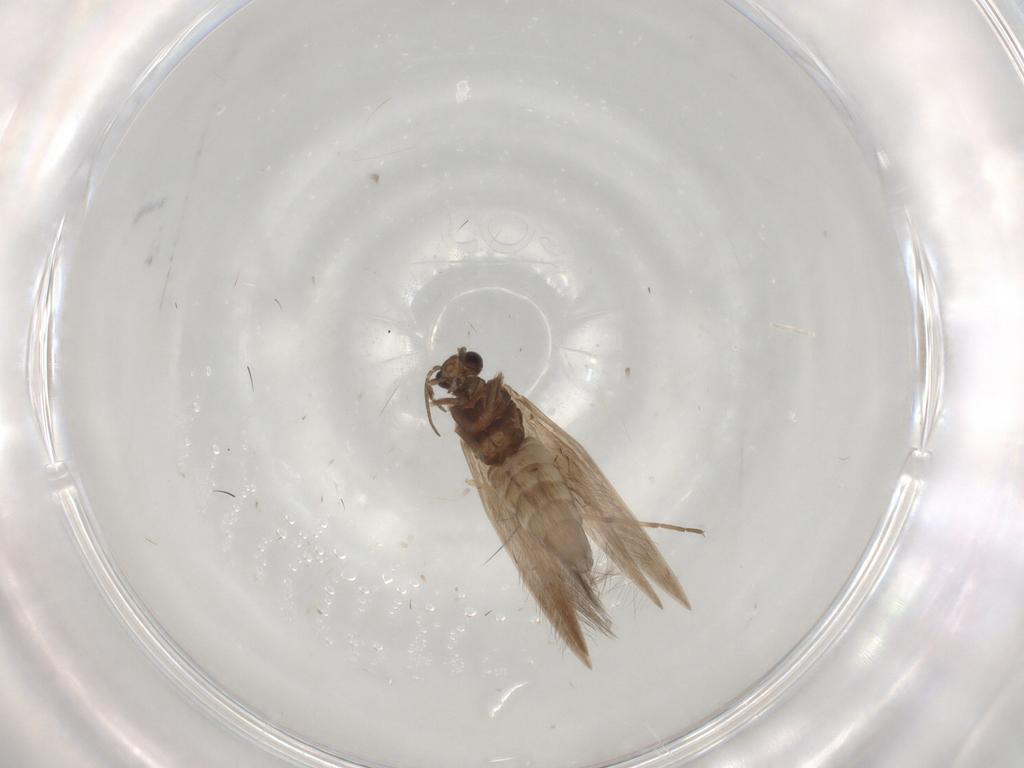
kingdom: Animalia
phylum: Arthropoda
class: Insecta
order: Trichoptera
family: Hydroptilidae
